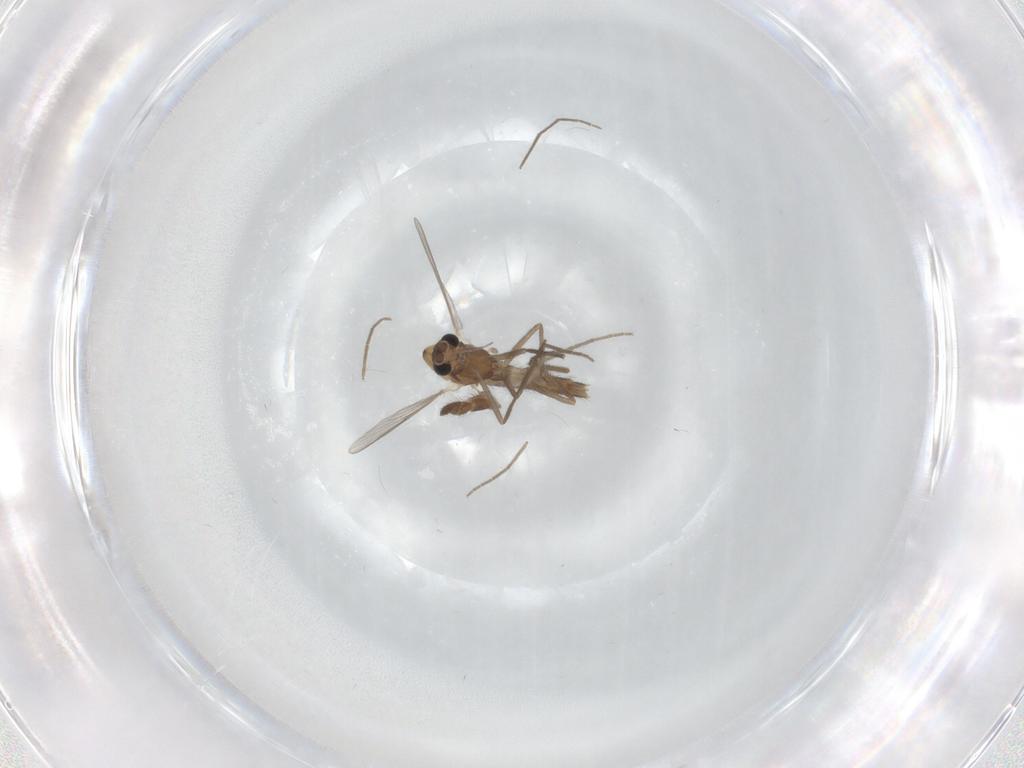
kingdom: Animalia
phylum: Arthropoda
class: Insecta
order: Diptera
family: Chironomidae
